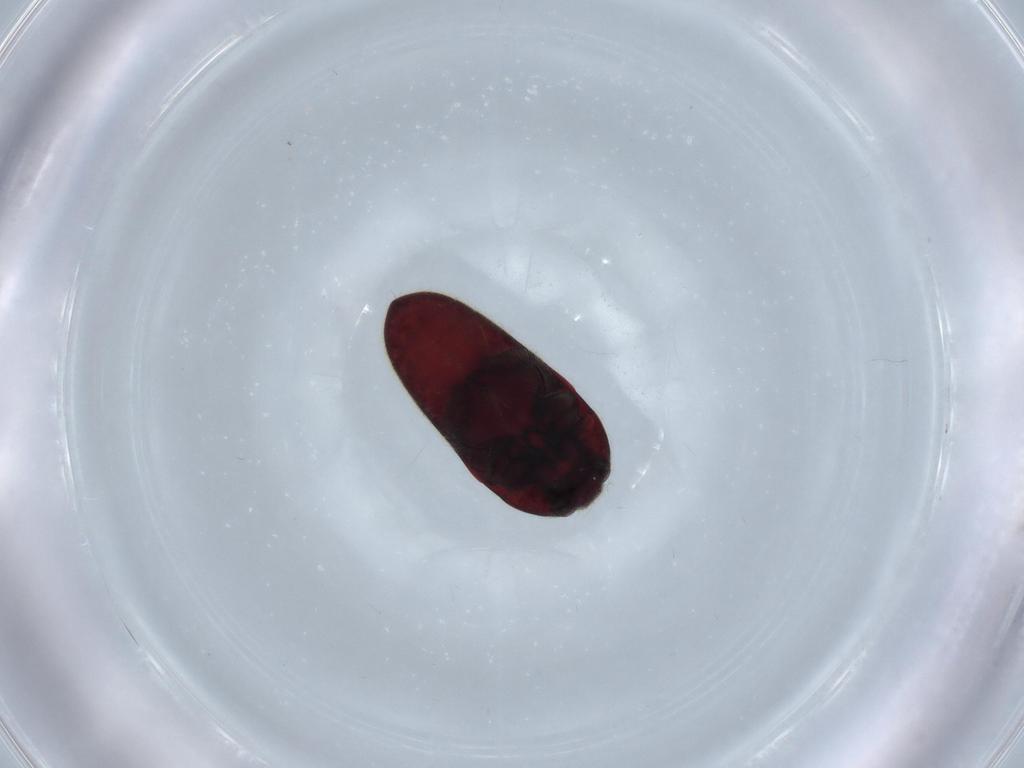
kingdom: Animalia
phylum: Arthropoda
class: Insecta
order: Coleoptera
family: Throscidae
